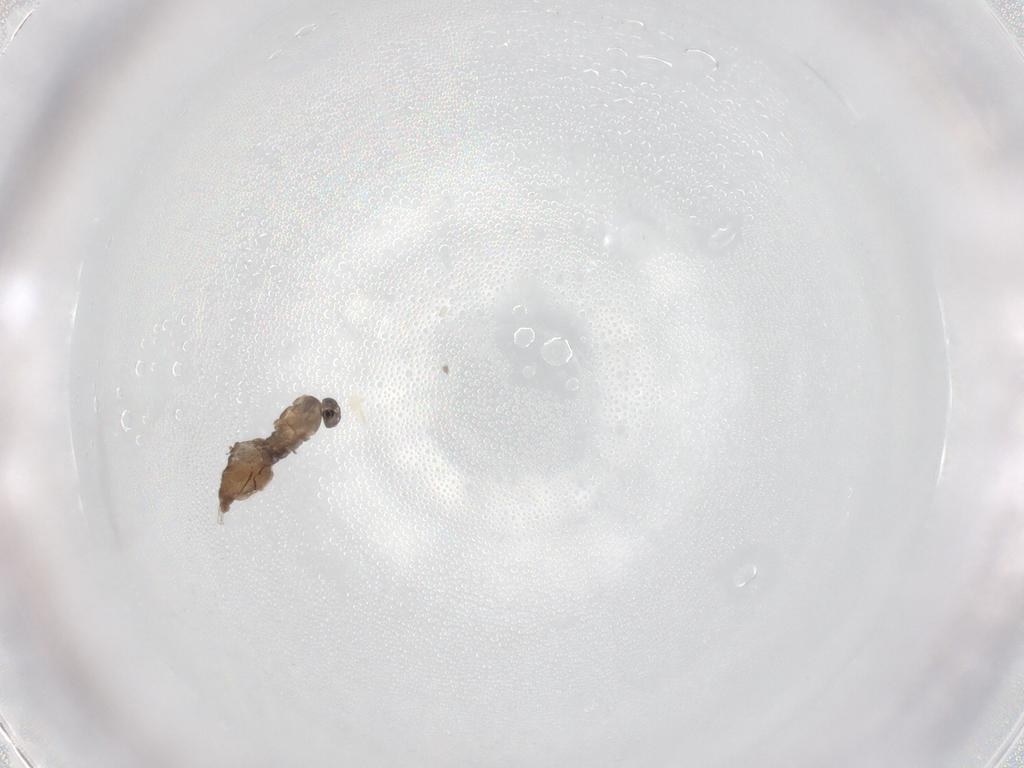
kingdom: Animalia
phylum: Arthropoda
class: Insecta
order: Diptera
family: Cecidomyiidae
